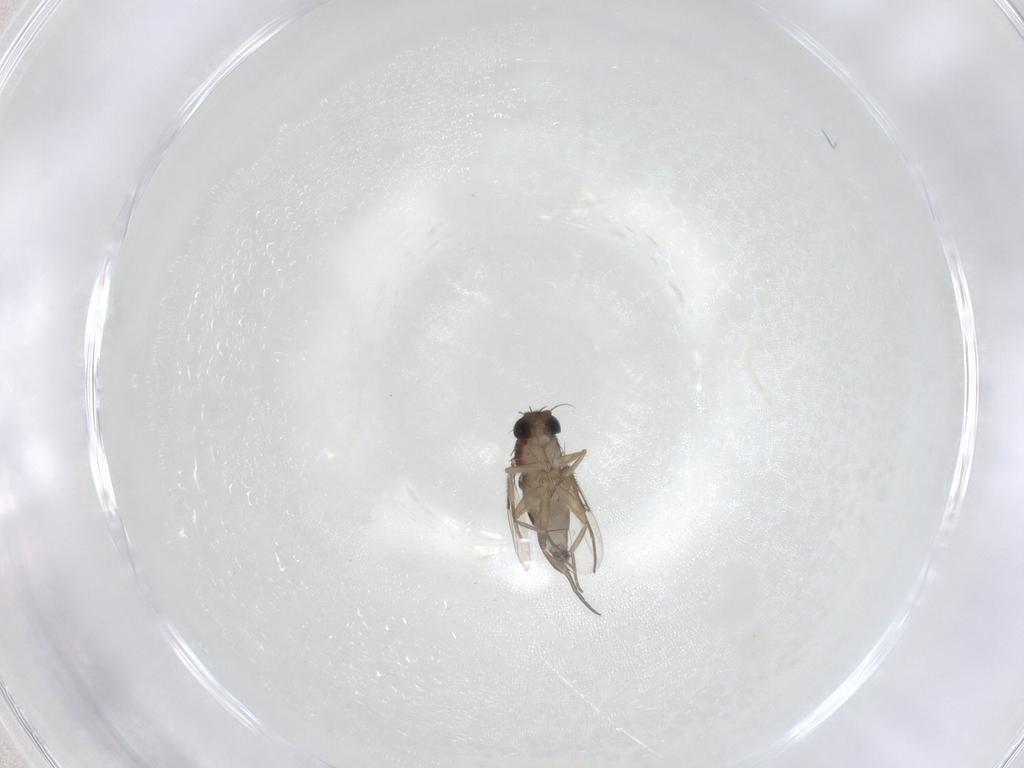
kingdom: Animalia
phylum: Arthropoda
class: Insecta
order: Diptera
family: Phoridae
